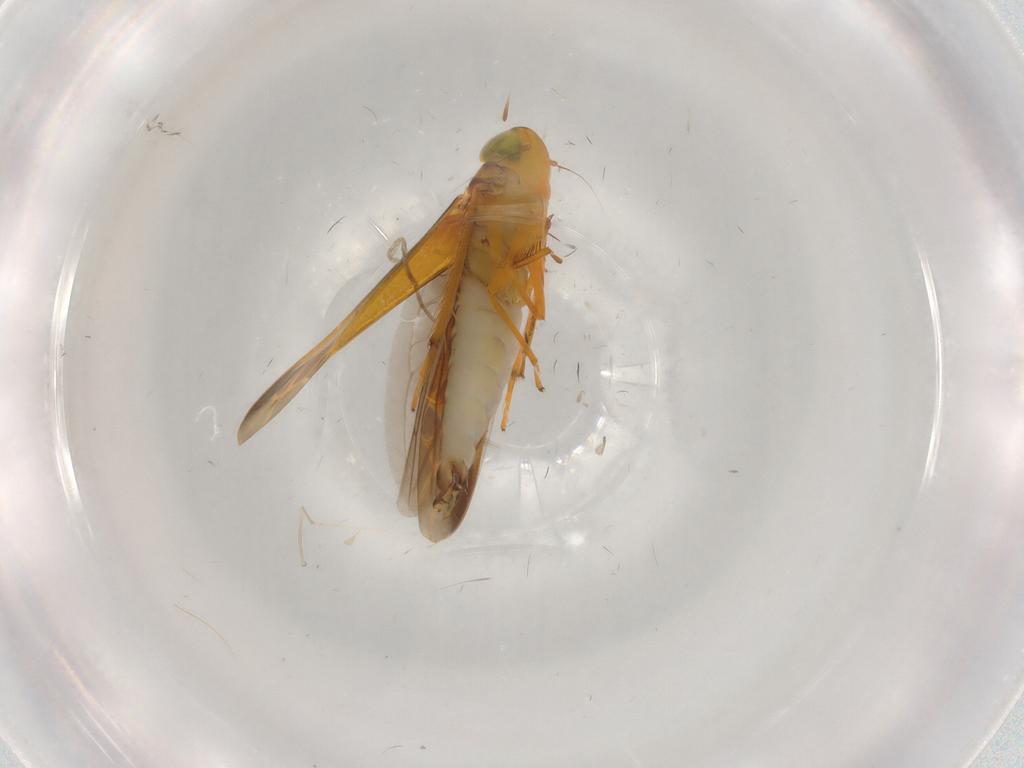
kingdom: Animalia
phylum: Arthropoda
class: Insecta
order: Hemiptera
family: Cicadellidae
